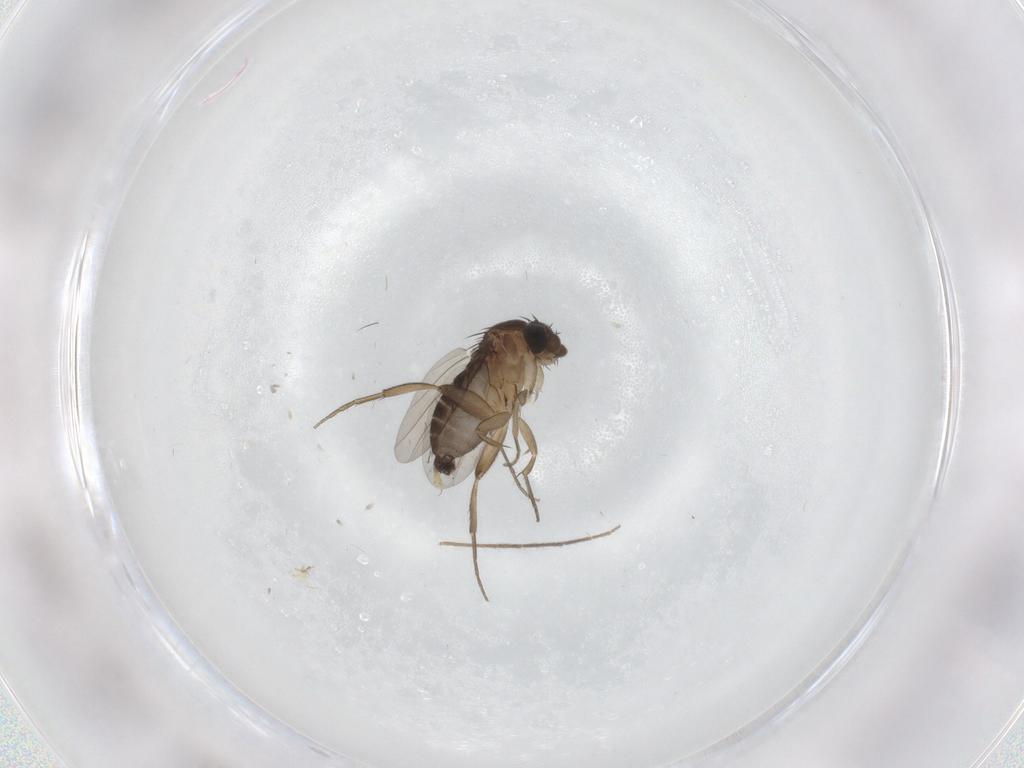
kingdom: Animalia
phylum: Arthropoda
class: Insecta
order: Diptera
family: Phoridae
